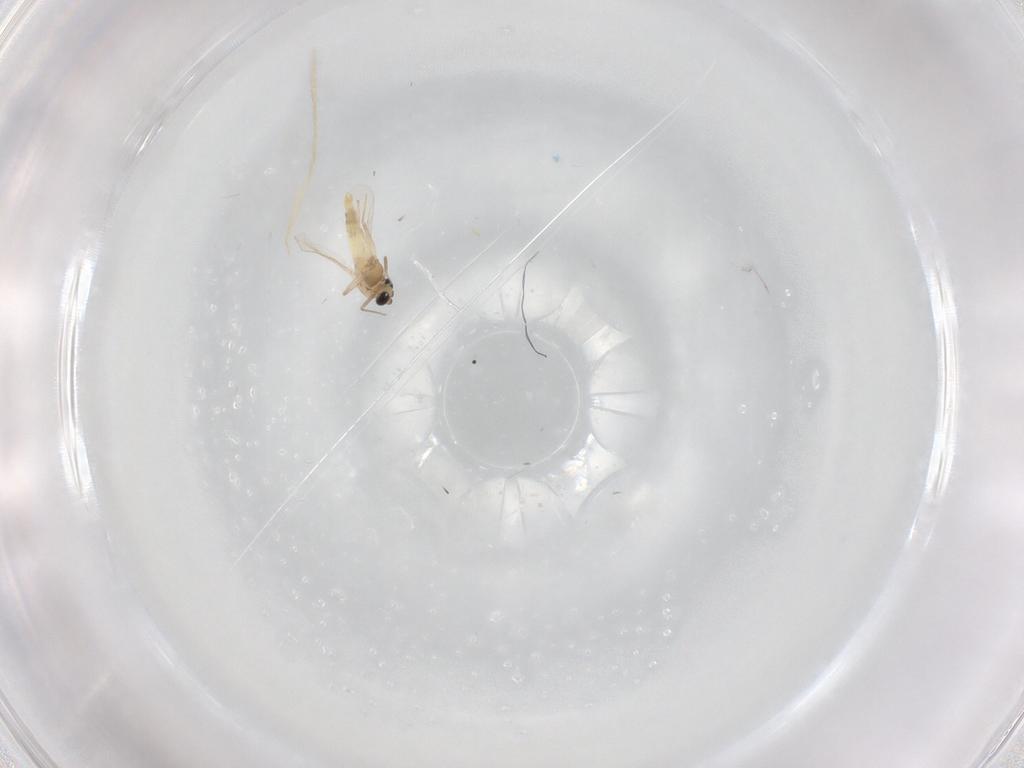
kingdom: Animalia
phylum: Arthropoda
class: Insecta
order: Diptera
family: Chironomidae
